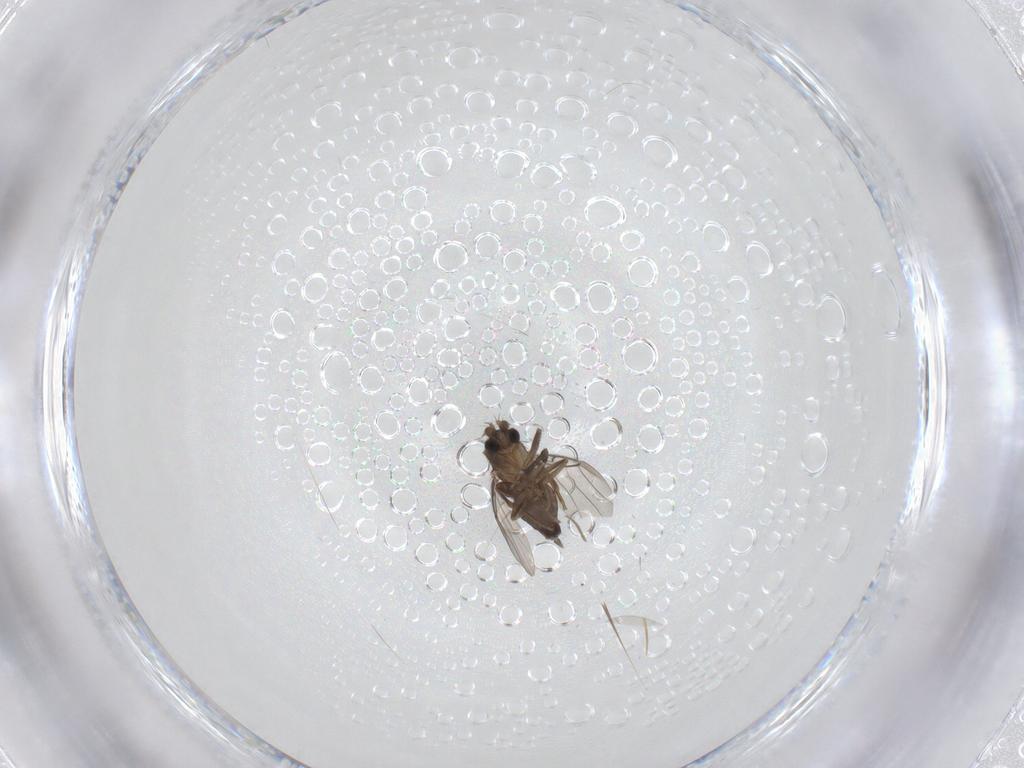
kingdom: Animalia
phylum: Arthropoda
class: Insecta
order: Diptera
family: Phoridae
